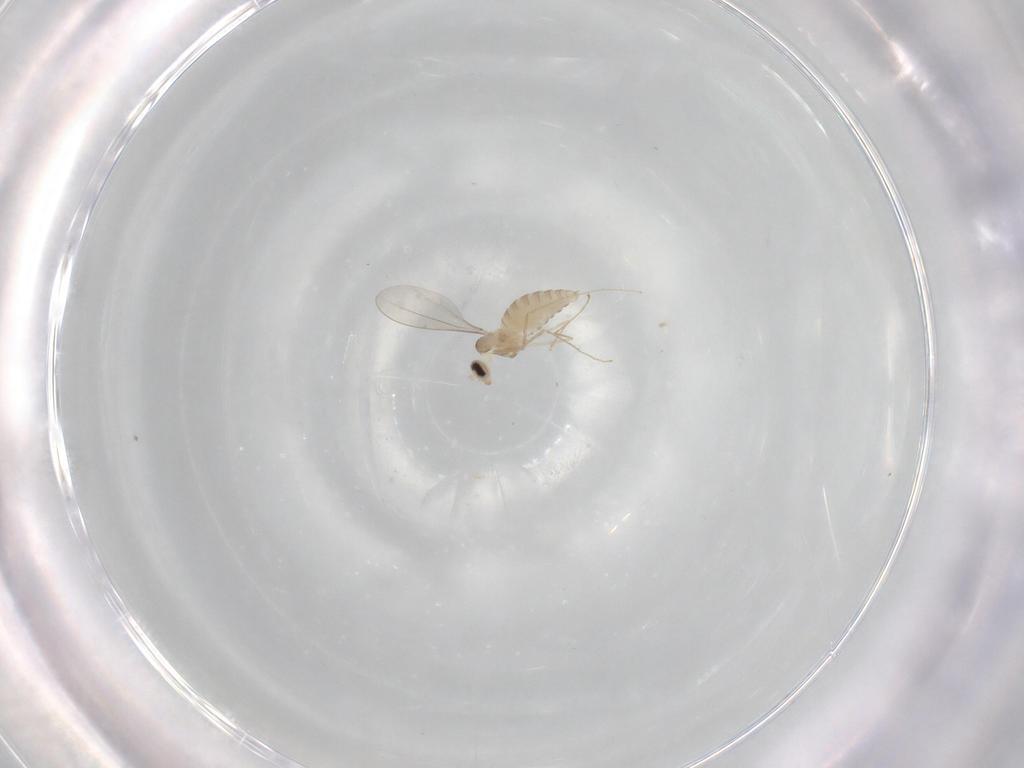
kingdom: Animalia
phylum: Arthropoda
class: Insecta
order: Diptera
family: Cecidomyiidae
